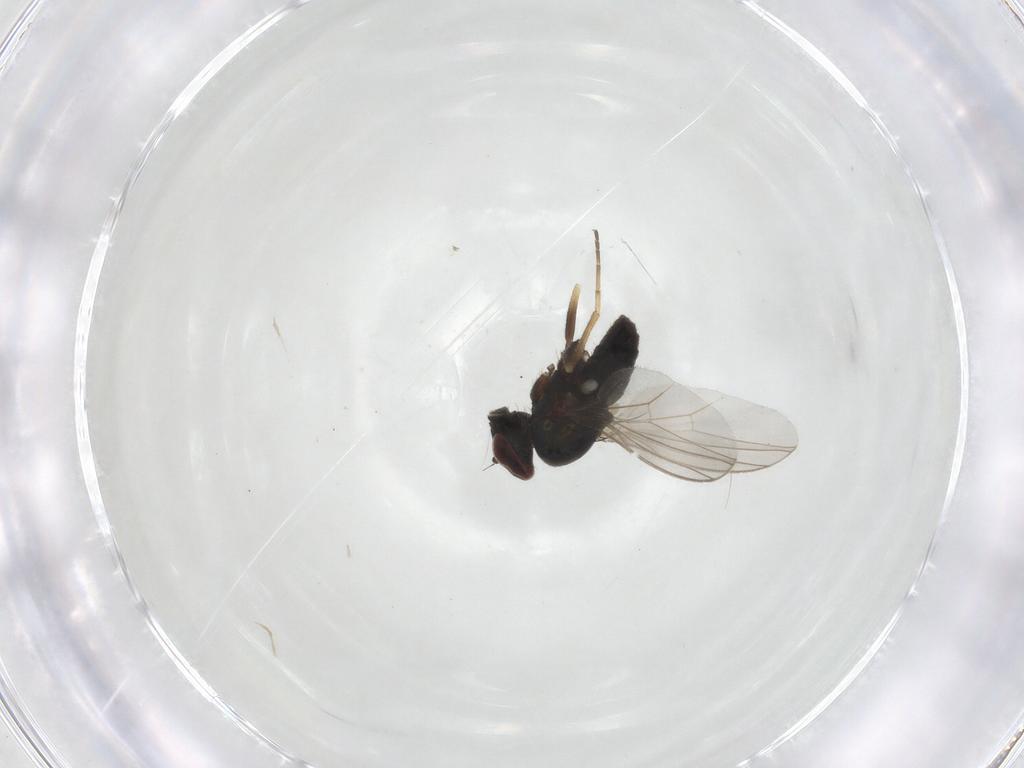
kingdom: Animalia
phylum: Arthropoda
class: Insecta
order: Diptera
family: Dolichopodidae
